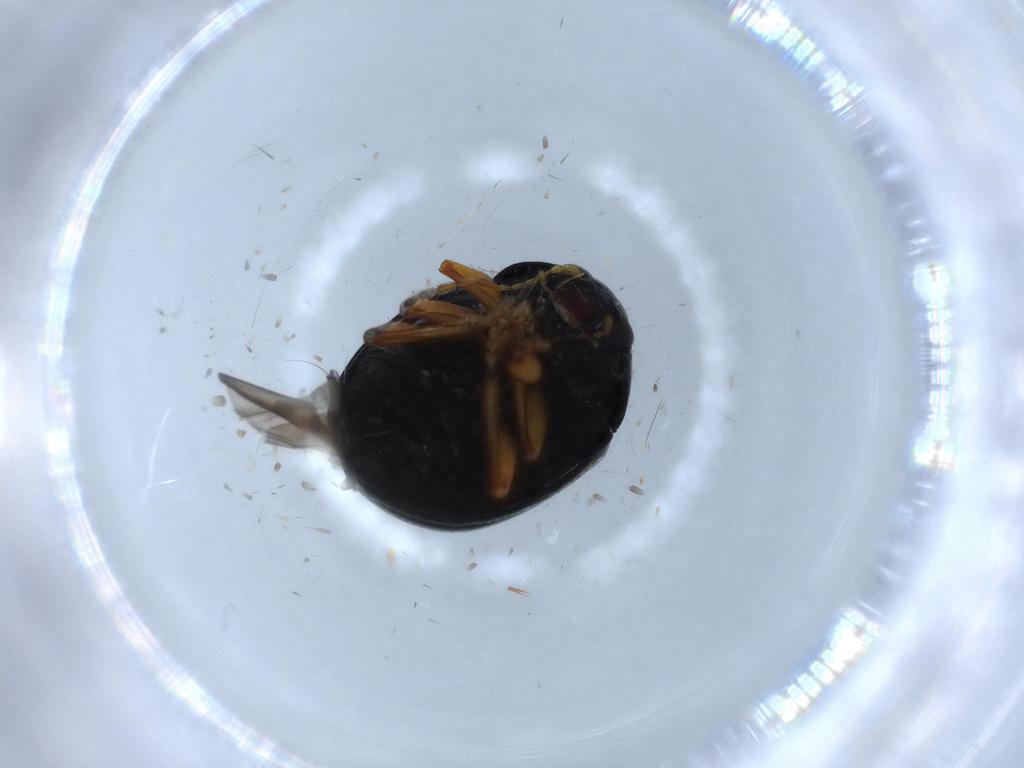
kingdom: Animalia
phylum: Arthropoda
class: Insecta
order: Coleoptera
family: Chrysomelidae
